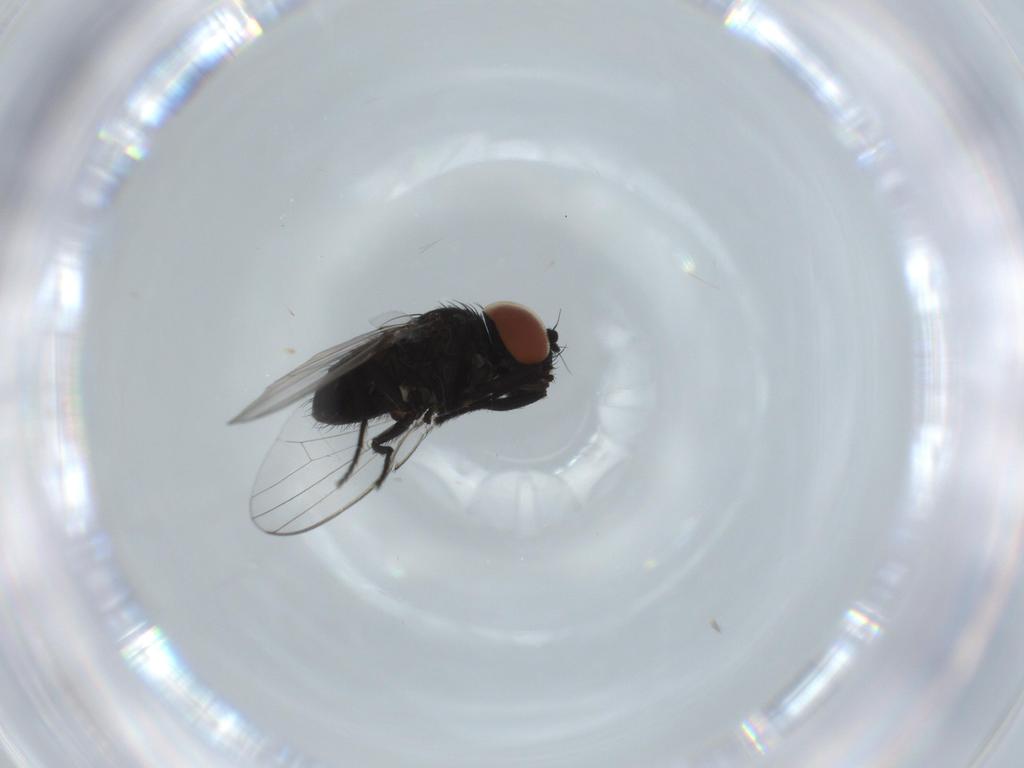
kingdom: Animalia
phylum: Arthropoda
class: Insecta
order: Diptera
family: Milichiidae
